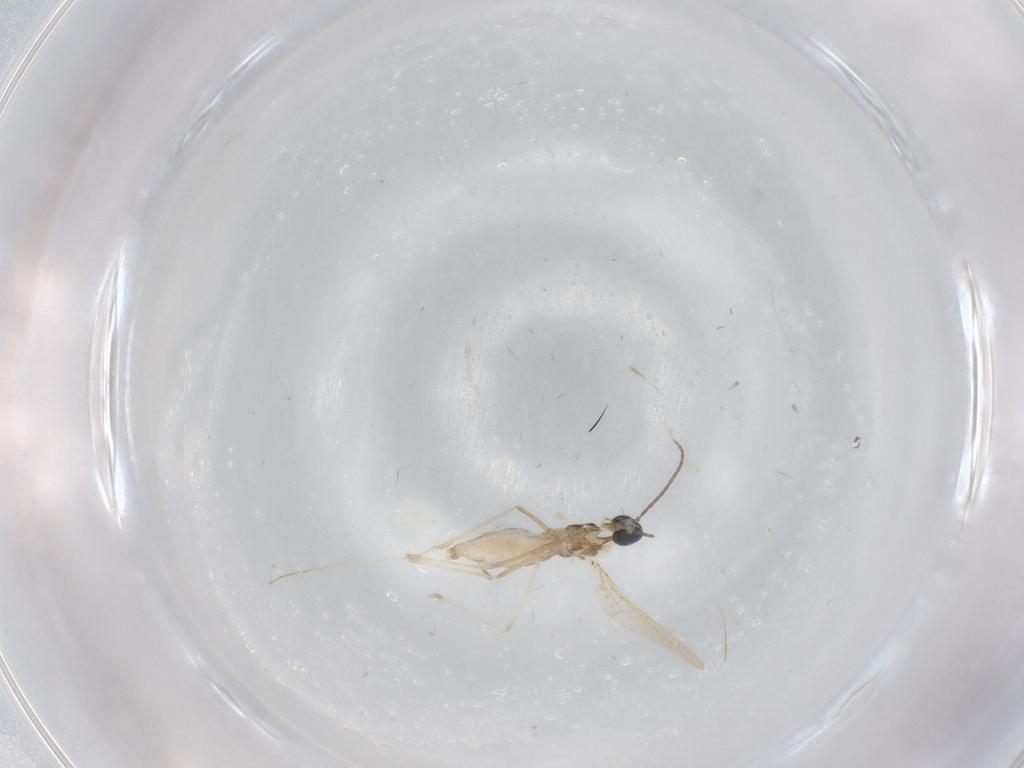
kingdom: Animalia
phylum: Arthropoda
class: Insecta
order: Diptera
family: Cecidomyiidae
